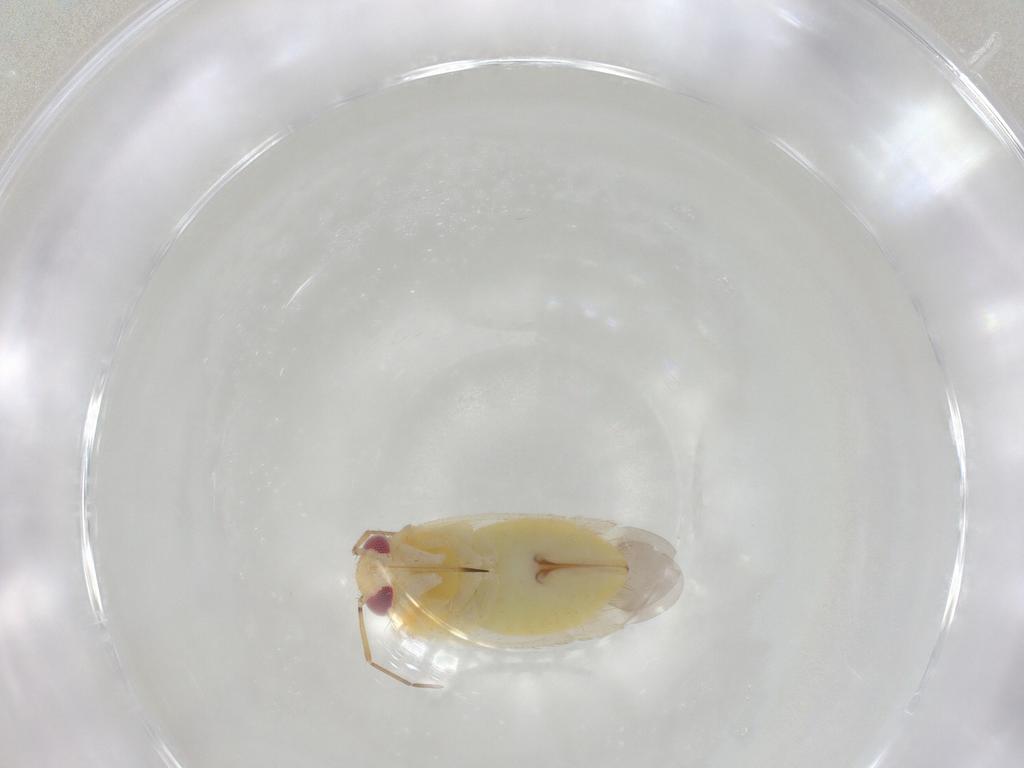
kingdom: Animalia
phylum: Arthropoda
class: Insecta
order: Hemiptera
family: Miridae
